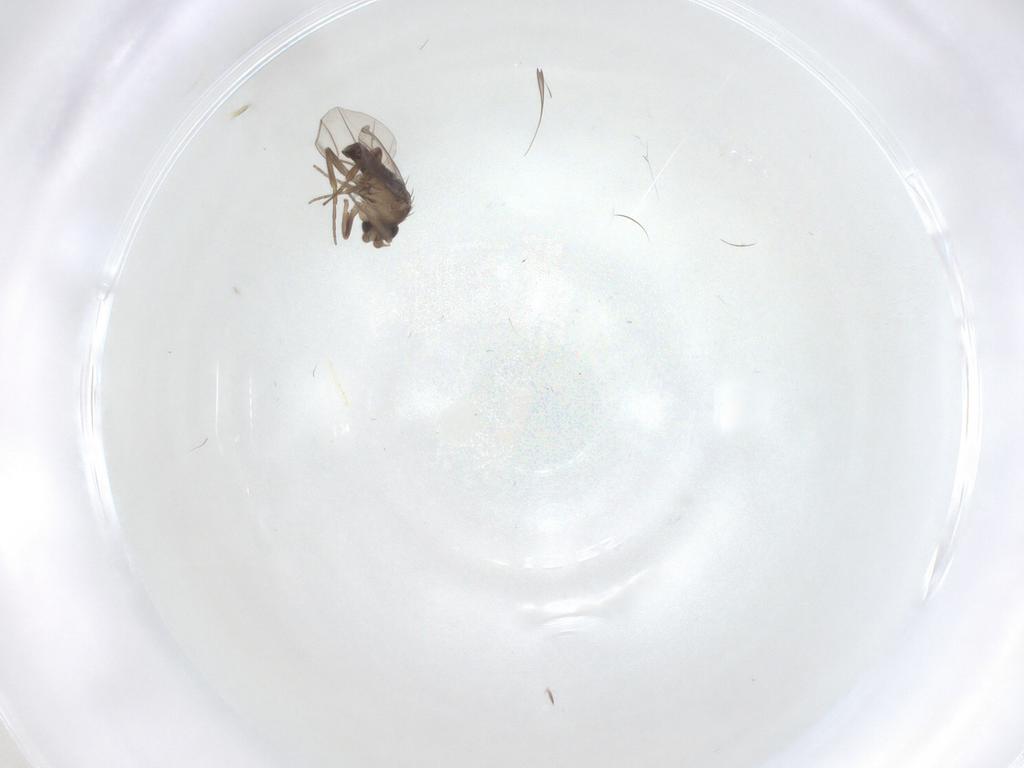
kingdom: Animalia
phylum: Arthropoda
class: Insecta
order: Diptera
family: Phoridae
